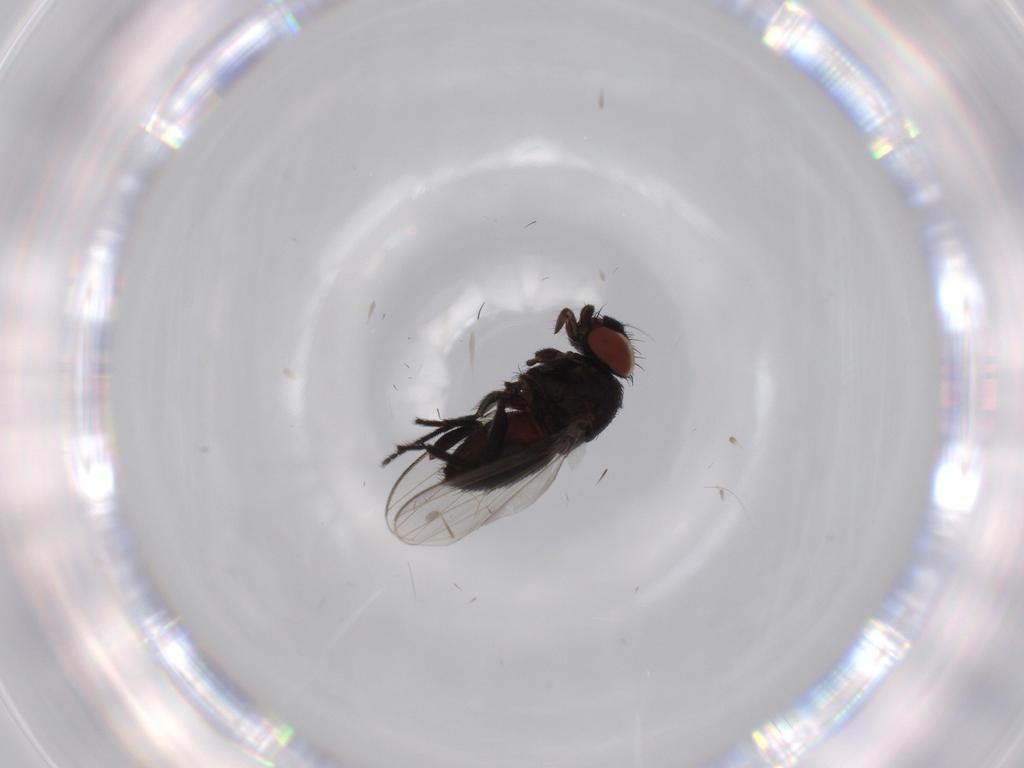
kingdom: Animalia
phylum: Arthropoda
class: Insecta
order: Diptera
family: Milichiidae
